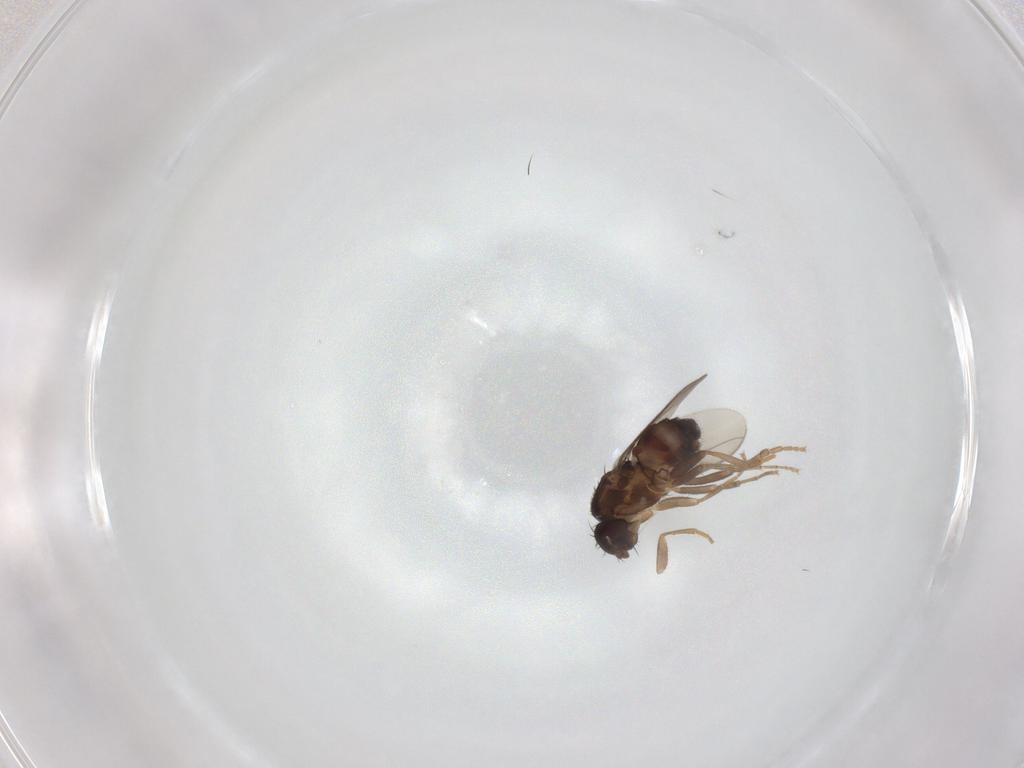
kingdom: Animalia
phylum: Arthropoda
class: Insecta
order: Diptera
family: Sphaeroceridae
